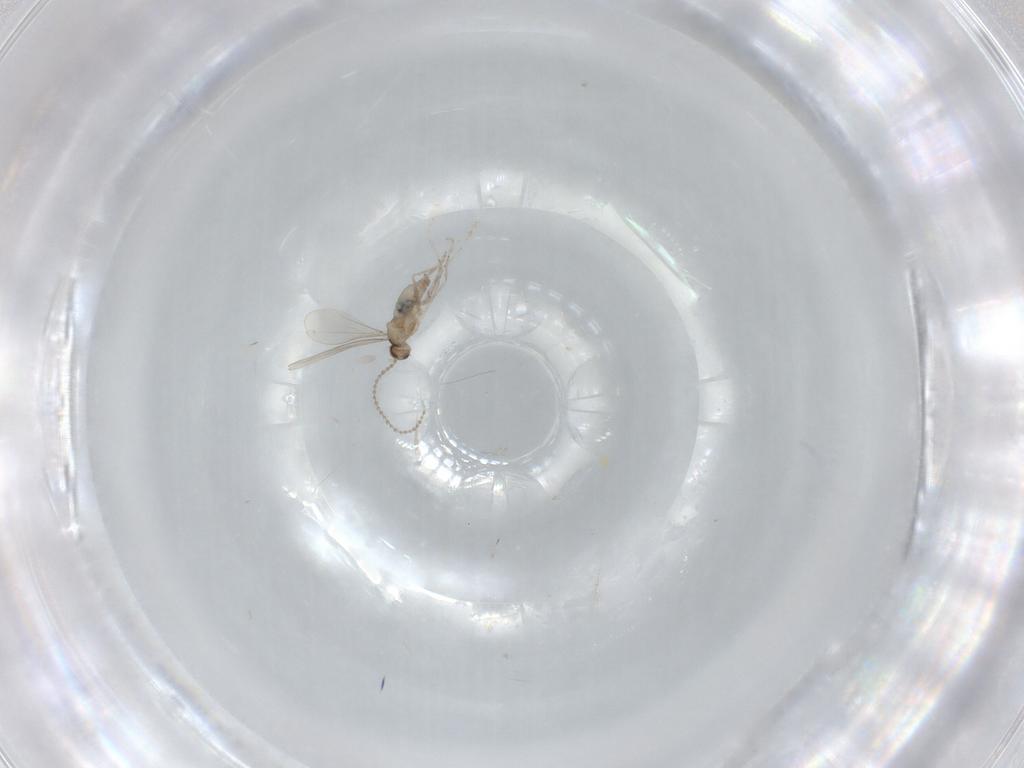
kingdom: Animalia
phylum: Arthropoda
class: Insecta
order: Diptera
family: Cecidomyiidae
